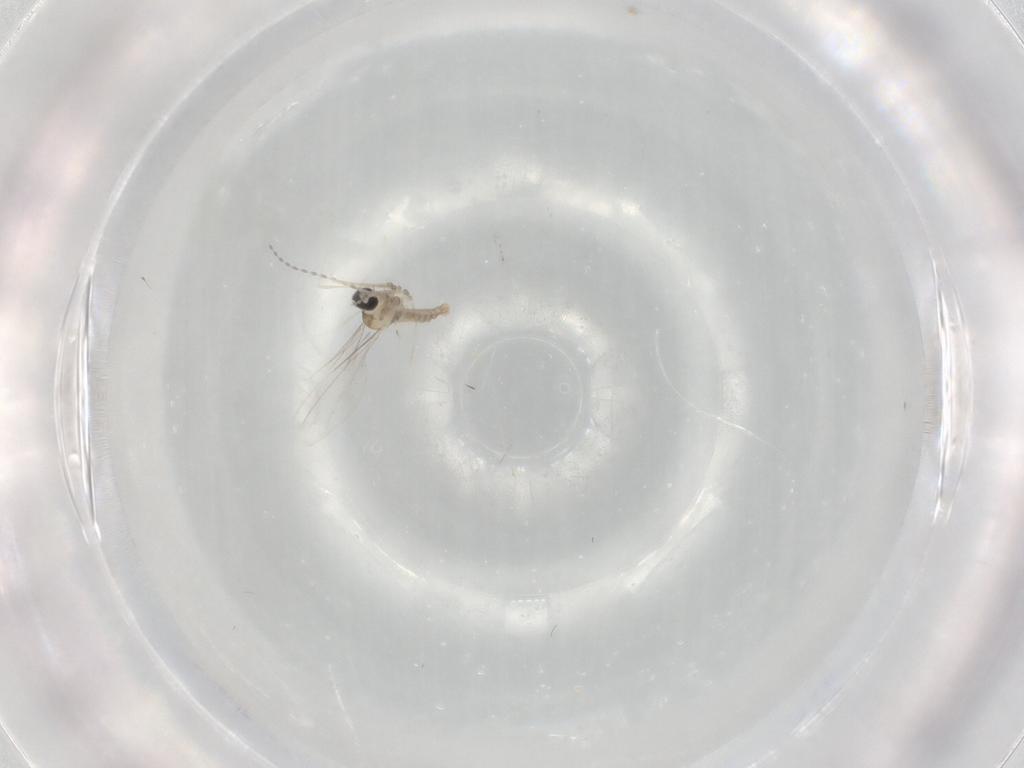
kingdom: Animalia
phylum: Arthropoda
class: Insecta
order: Diptera
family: Cecidomyiidae
